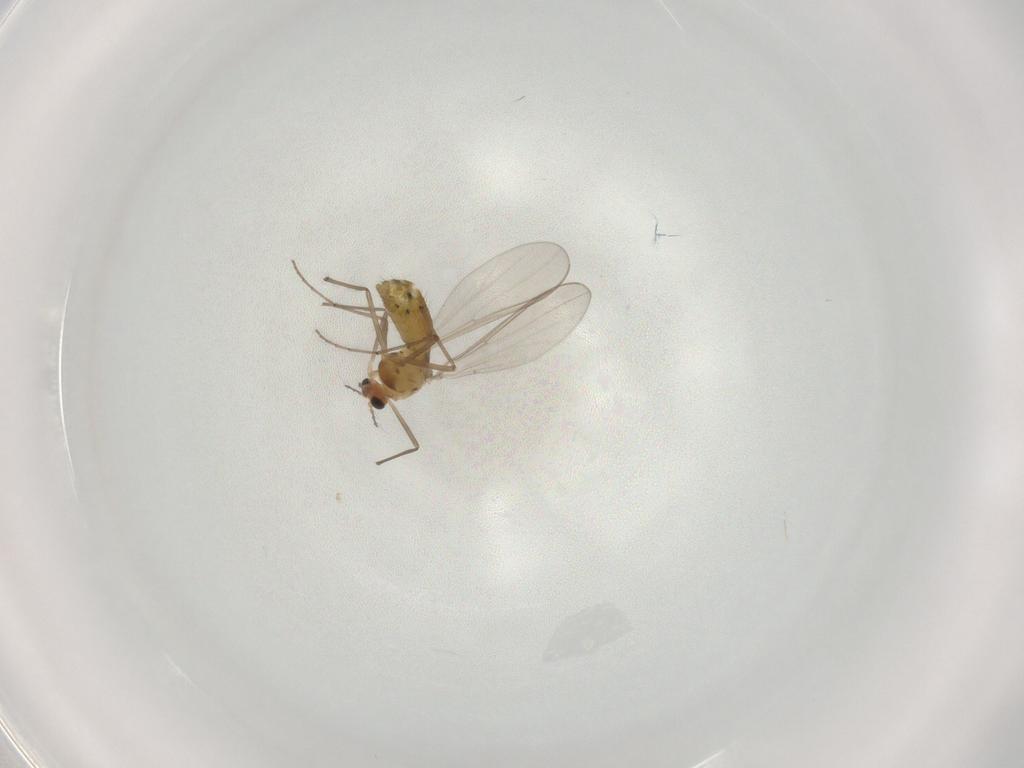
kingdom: Animalia
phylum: Arthropoda
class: Insecta
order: Diptera
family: Chironomidae
